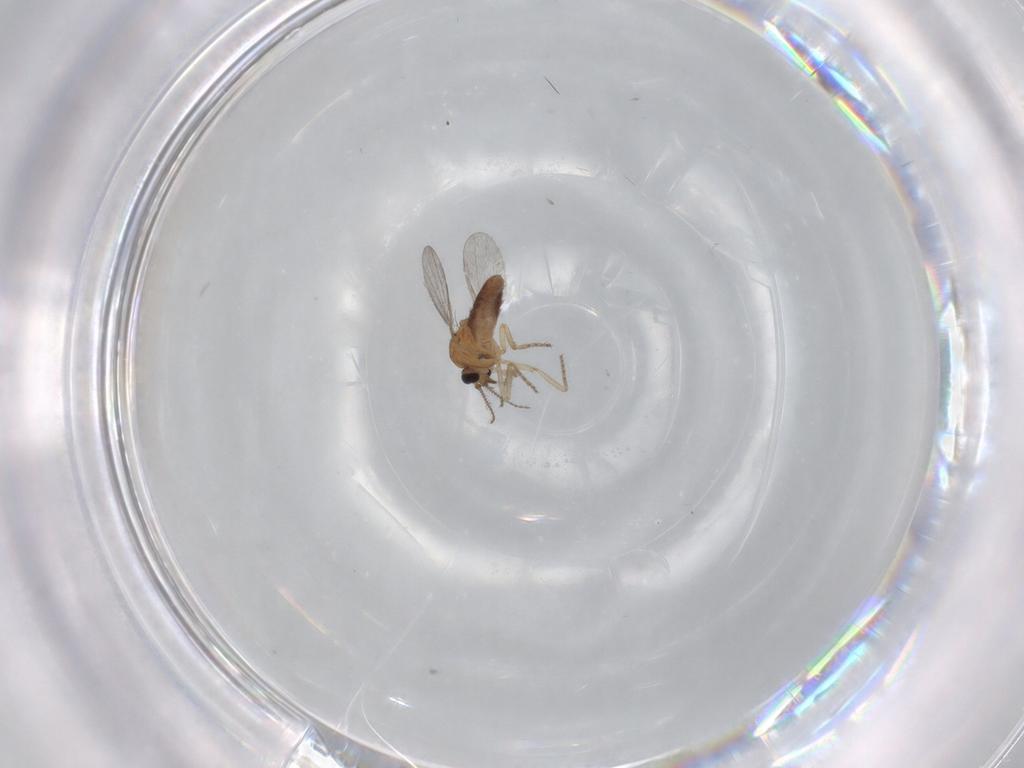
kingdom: Animalia
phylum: Arthropoda
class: Insecta
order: Diptera
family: Ceratopogonidae
